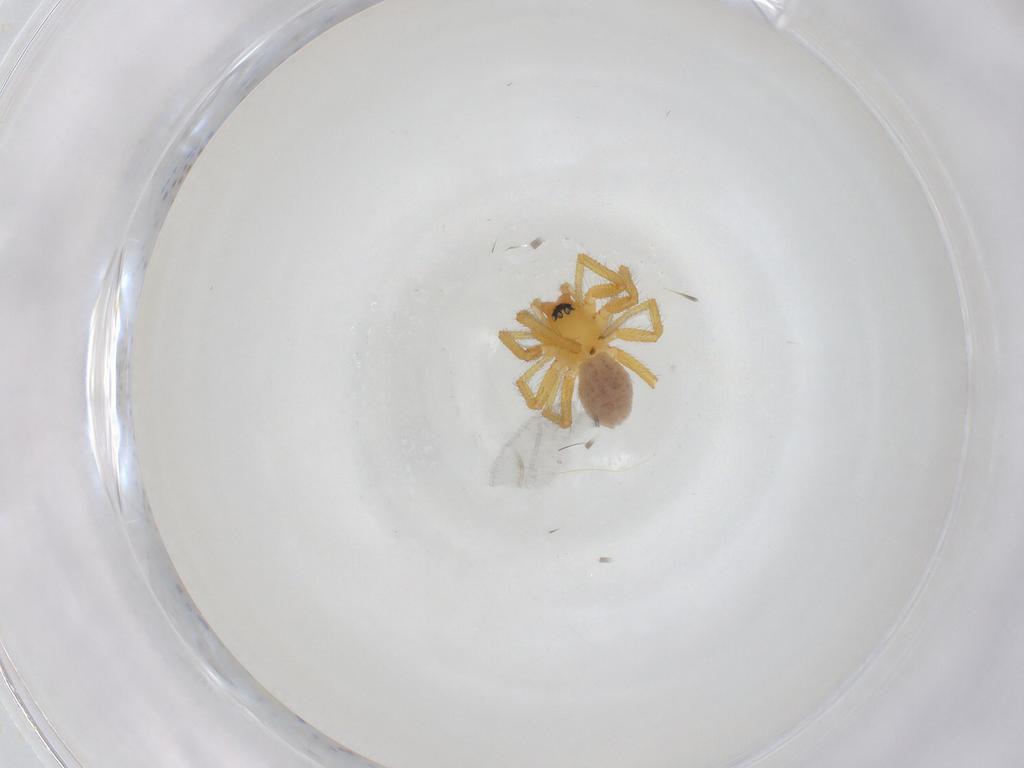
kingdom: Animalia
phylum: Arthropoda
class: Arachnida
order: Araneae
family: Linyphiidae
